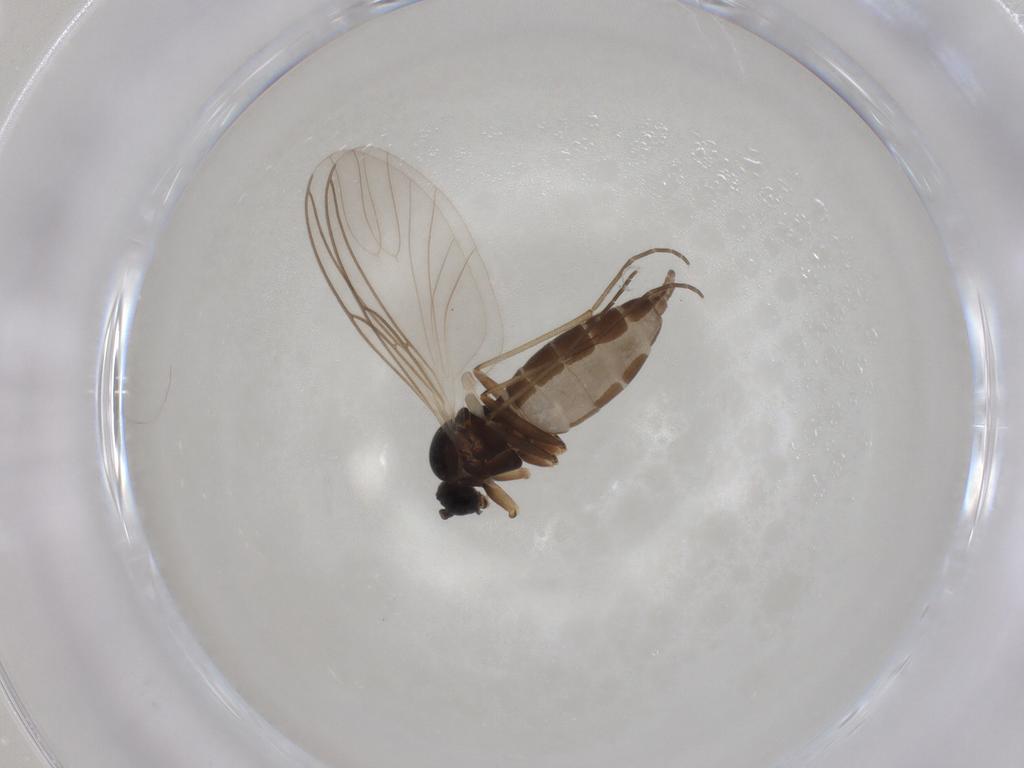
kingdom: Animalia
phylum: Arthropoda
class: Insecta
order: Diptera
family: Sciaridae
